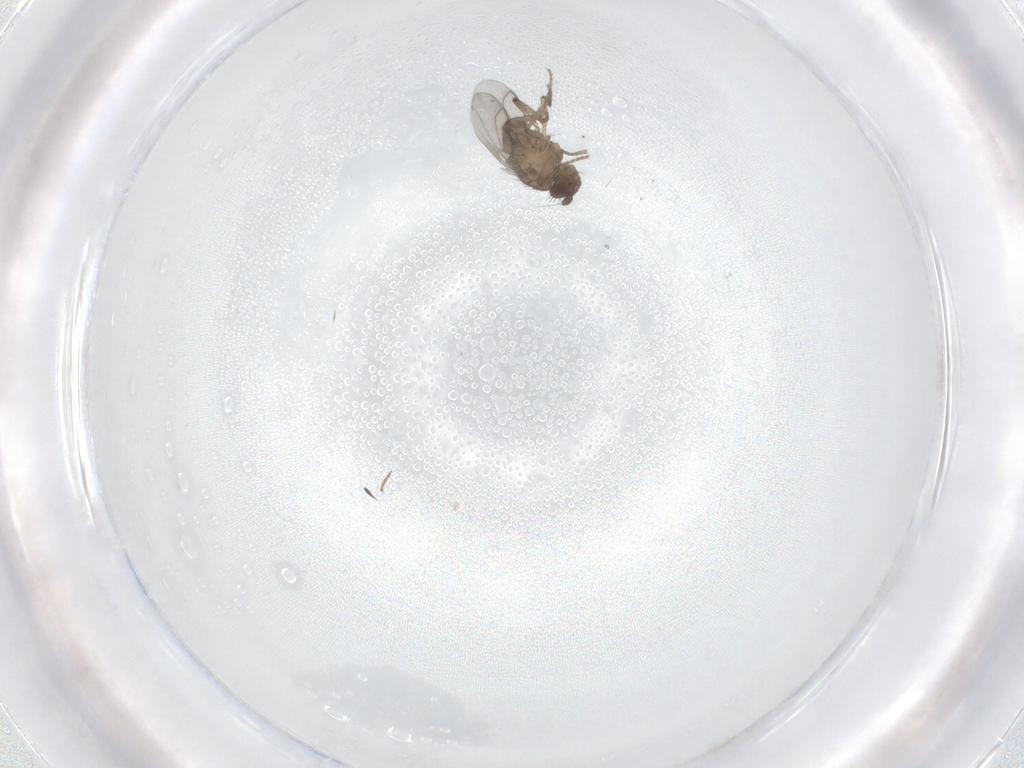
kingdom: Animalia
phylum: Arthropoda
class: Insecta
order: Diptera
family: Sphaeroceridae
